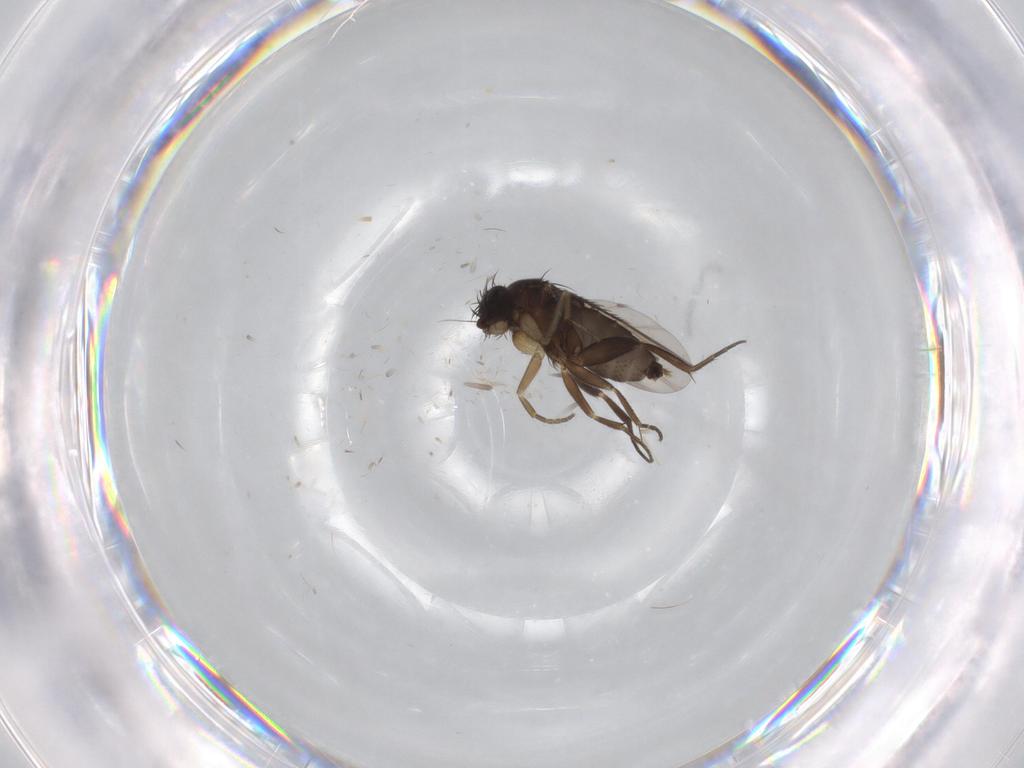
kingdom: Animalia
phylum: Arthropoda
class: Insecta
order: Diptera
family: Phoridae
